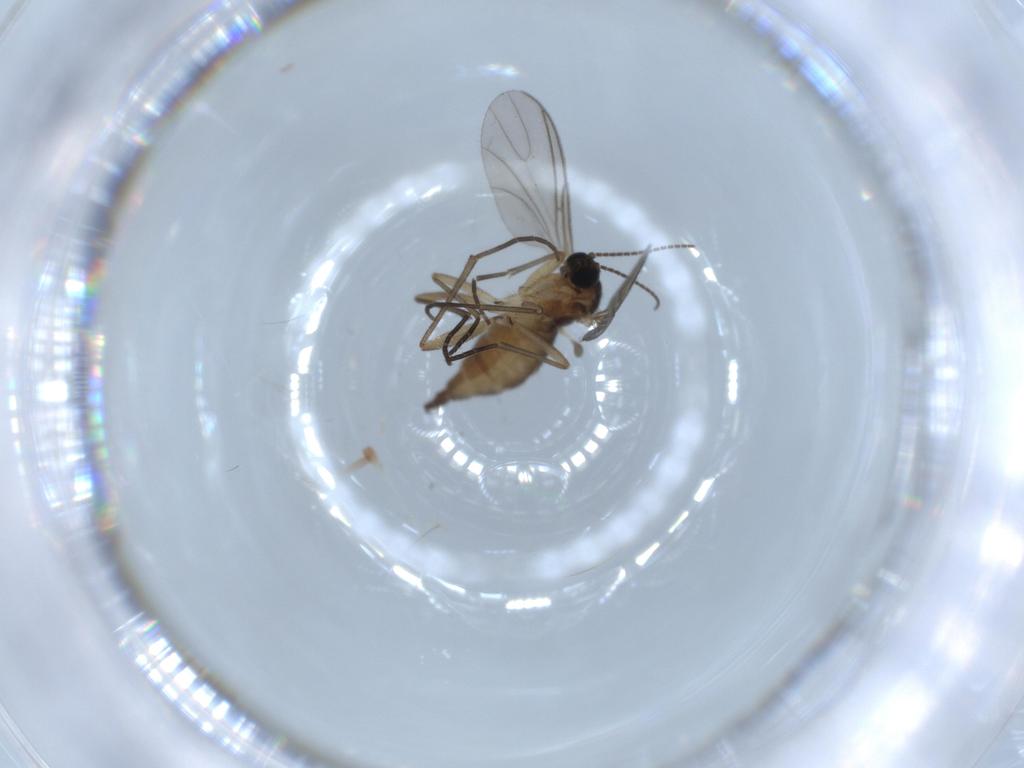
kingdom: Animalia
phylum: Arthropoda
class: Insecta
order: Diptera
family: Sciaridae
